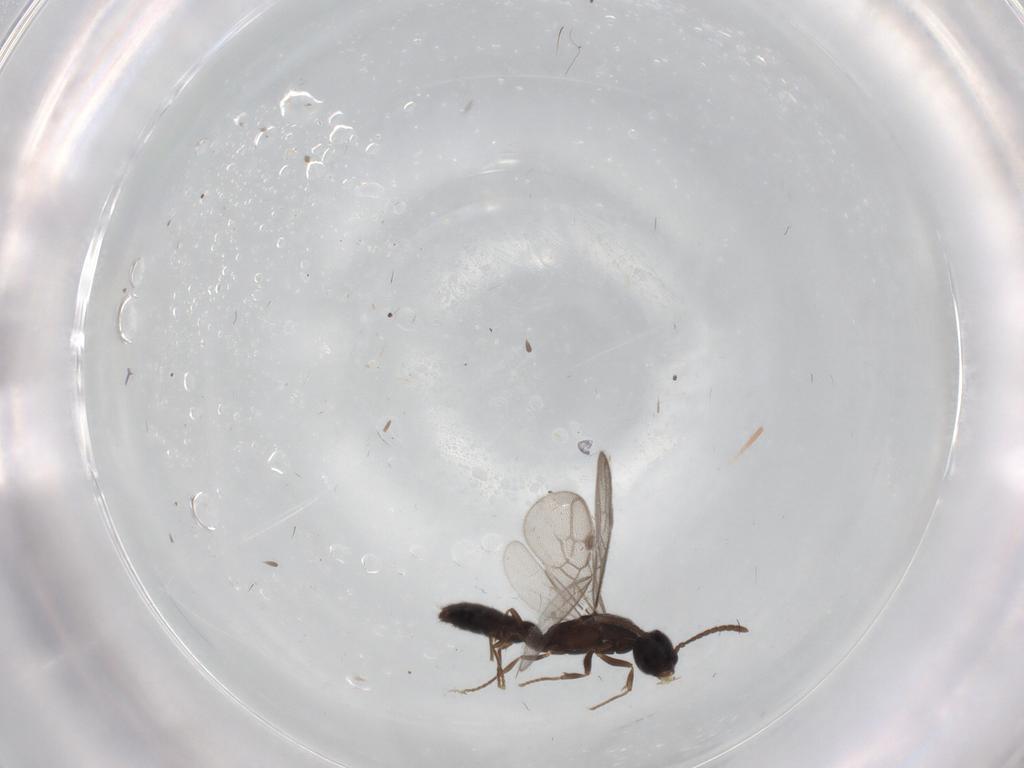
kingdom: Animalia
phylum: Arthropoda
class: Insecta
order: Hymenoptera
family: Formicidae
